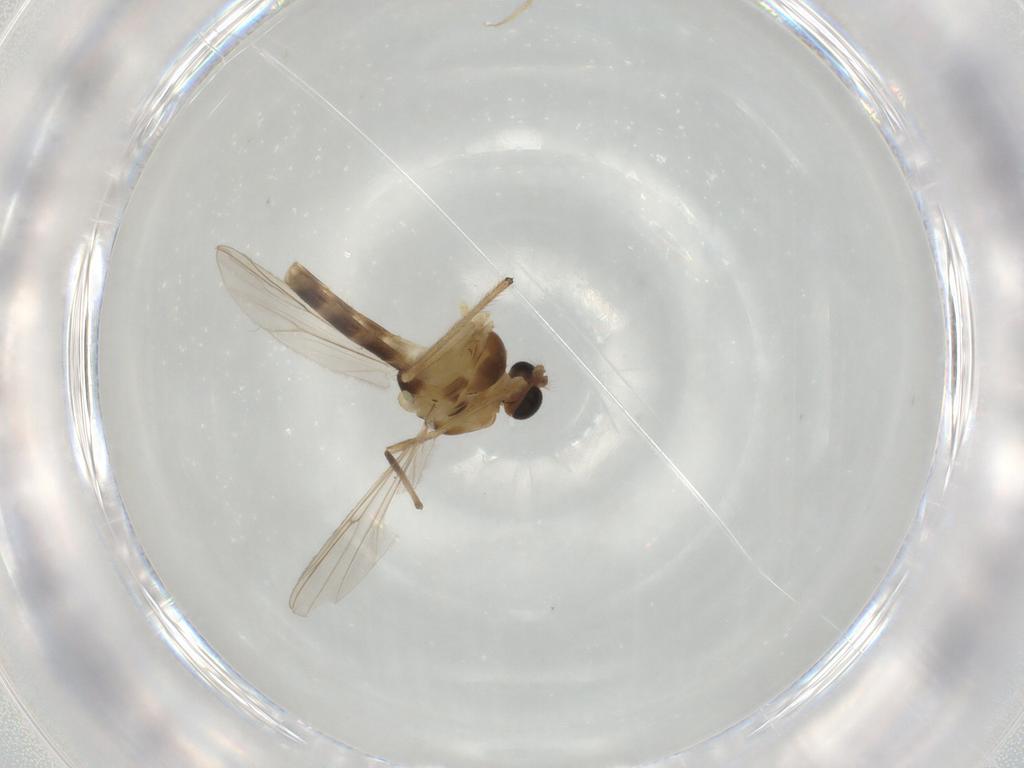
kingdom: Animalia
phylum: Arthropoda
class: Insecta
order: Diptera
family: Chironomidae
